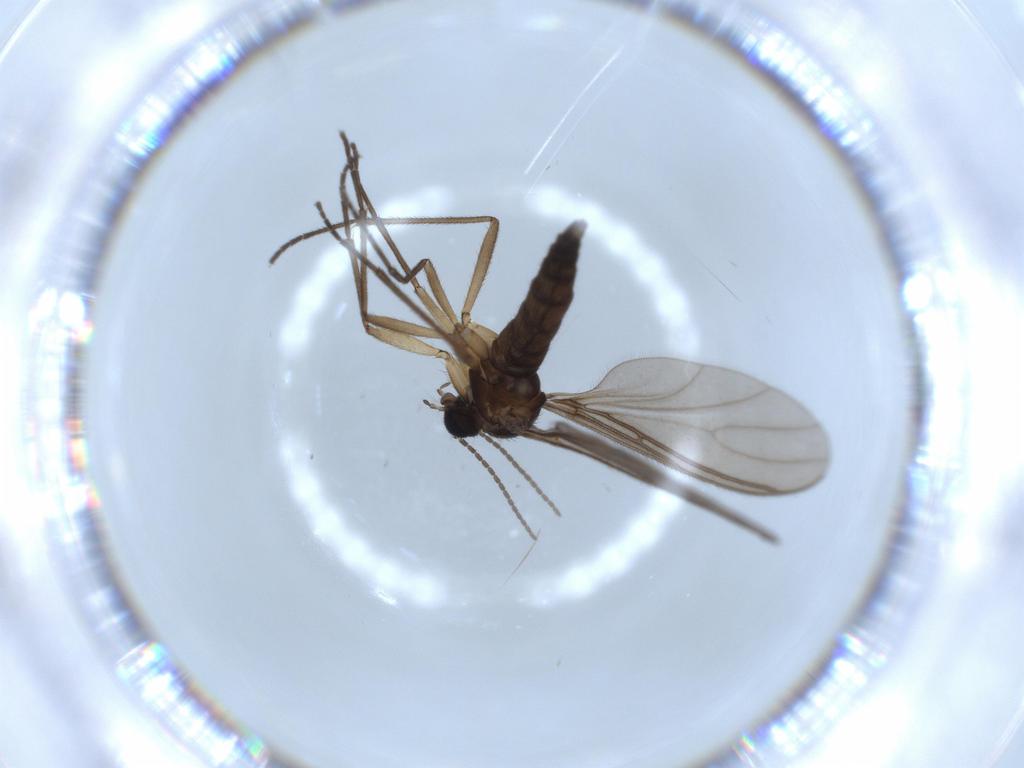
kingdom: Animalia
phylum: Arthropoda
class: Insecta
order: Diptera
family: Sciaridae
